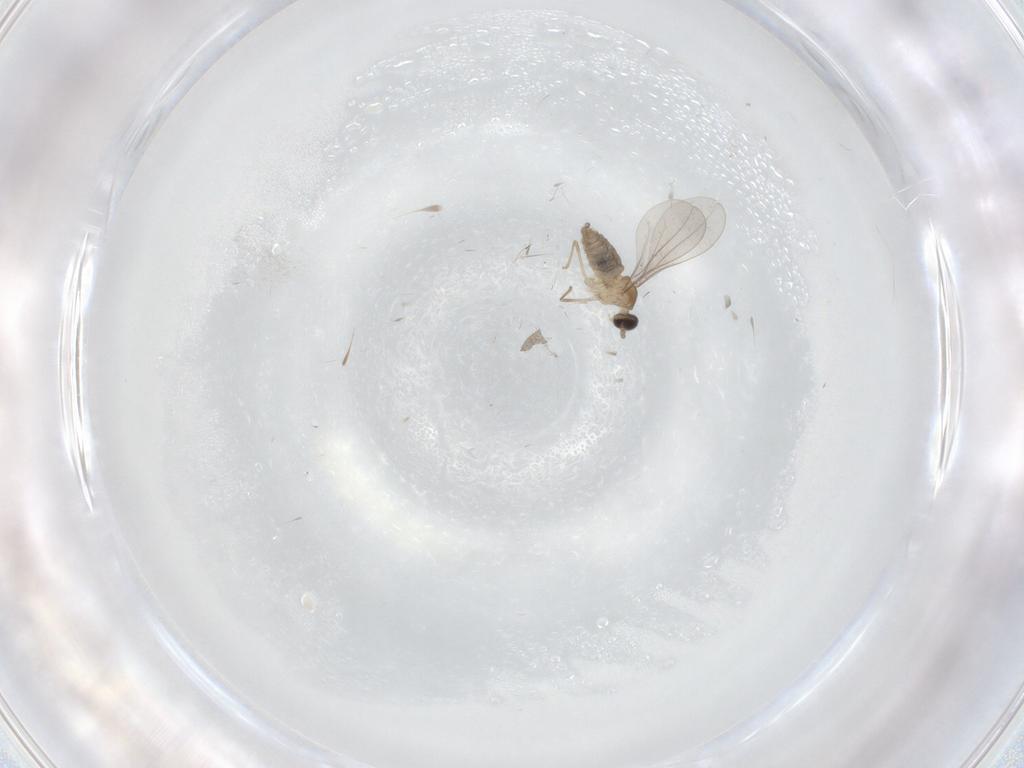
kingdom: Animalia
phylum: Arthropoda
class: Insecta
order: Diptera
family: Cecidomyiidae
